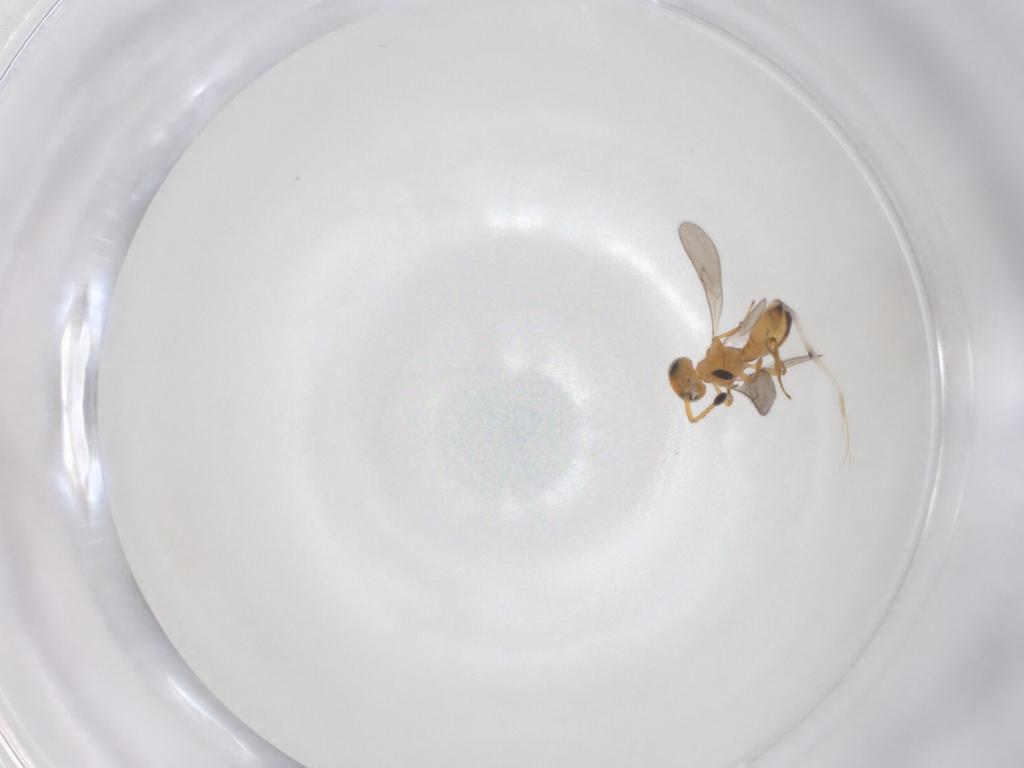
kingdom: Animalia
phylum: Arthropoda
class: Insecta
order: Hymenoptera
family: Scelionidae
